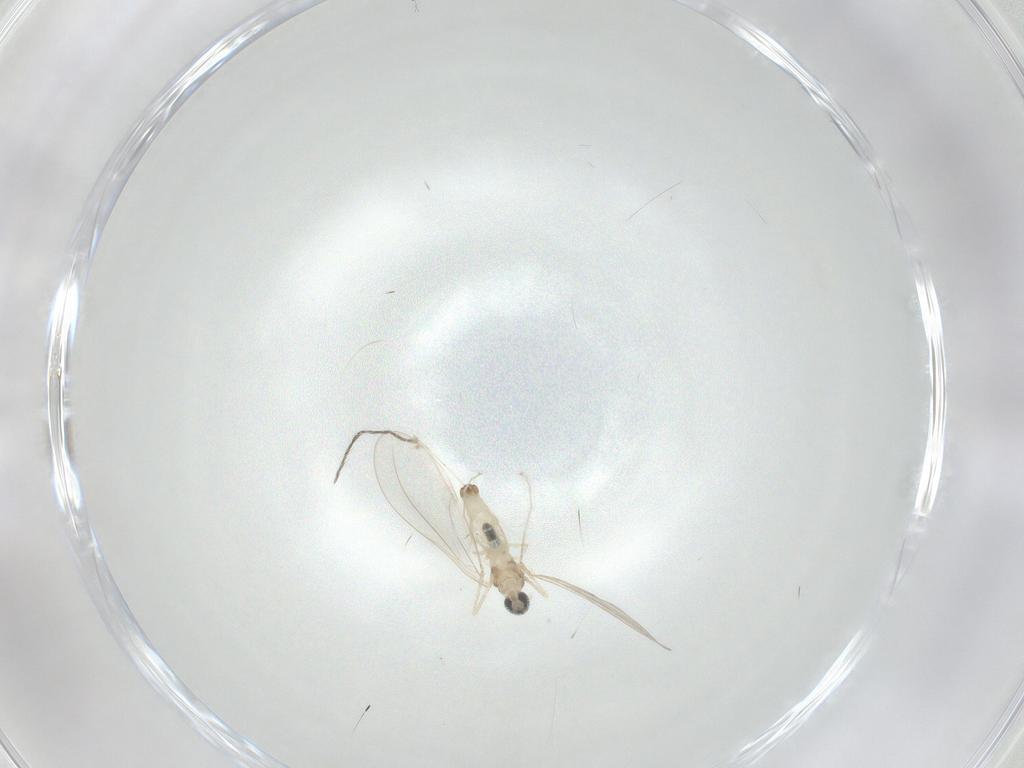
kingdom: Animalia
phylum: Arthropoda
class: Insecta
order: Diptera
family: Cecidomyiidae
